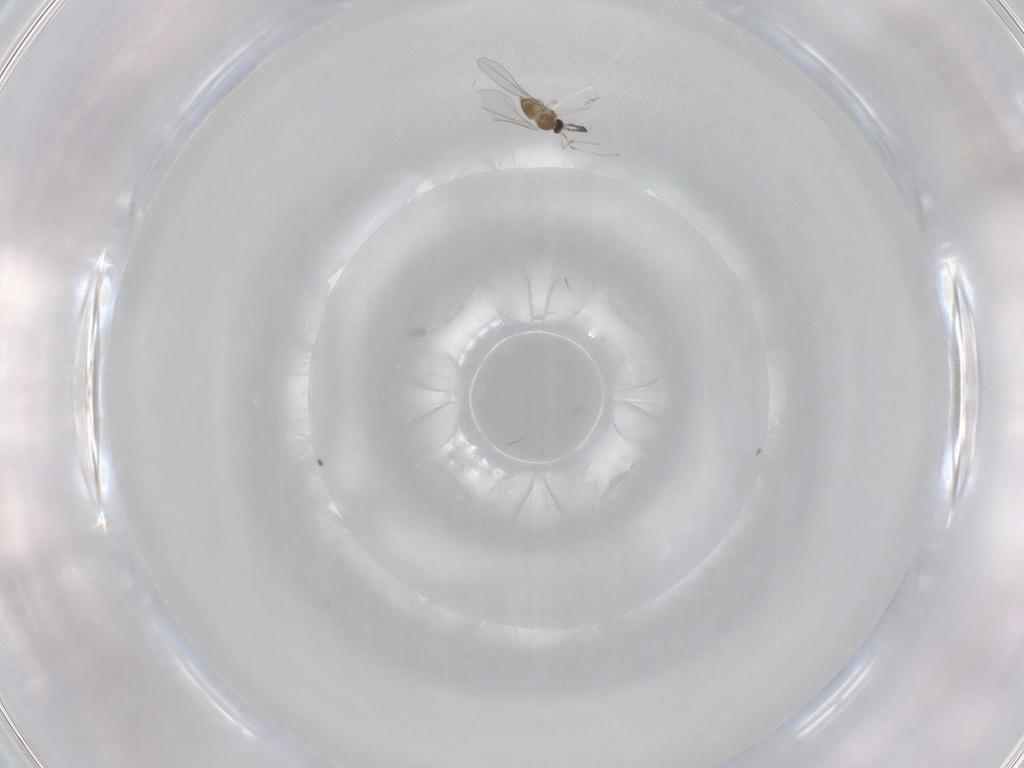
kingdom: Animalia
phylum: Arthropoda
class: Insecta
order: Diptera
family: Cecidomyiidae
